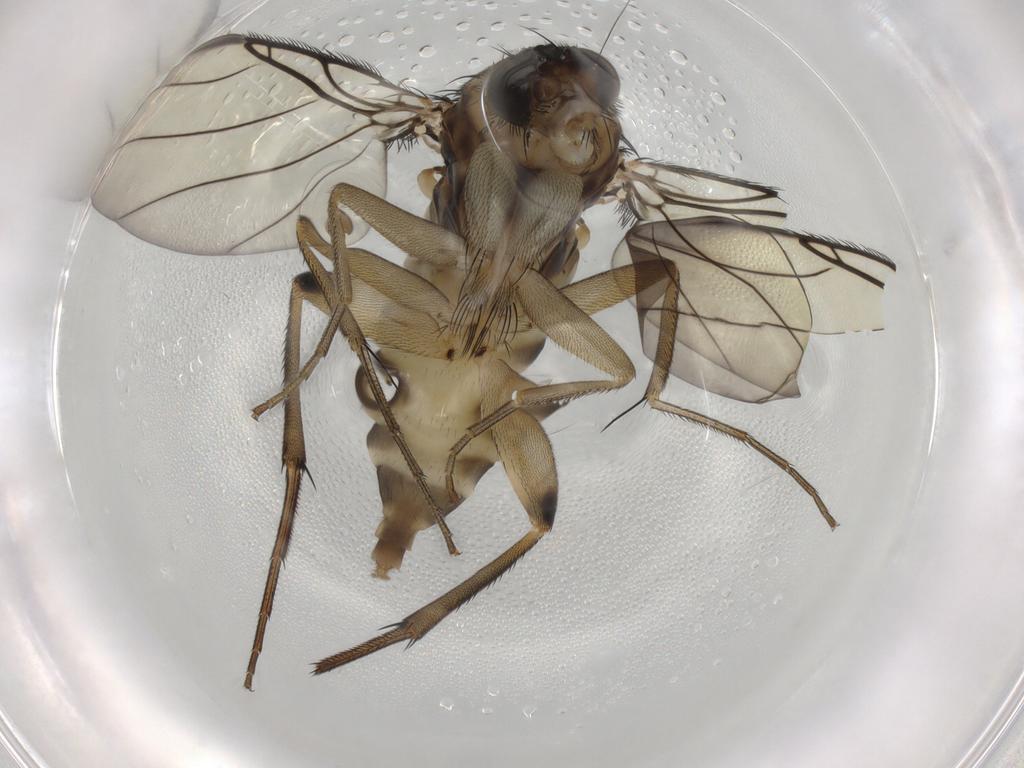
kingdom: Animalia
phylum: Arthropoda
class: Insecta
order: Diptera
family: Phoridae
